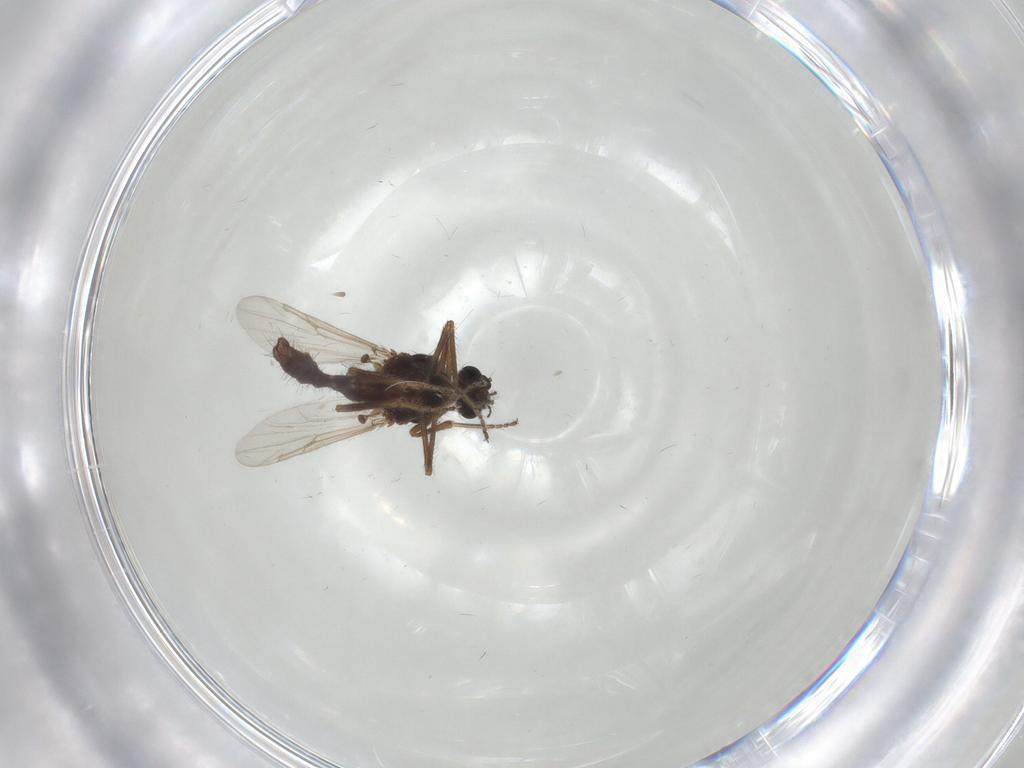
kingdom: Animalia
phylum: Arthropoda
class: Insecta
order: Diptera
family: Ceratopogonidae
